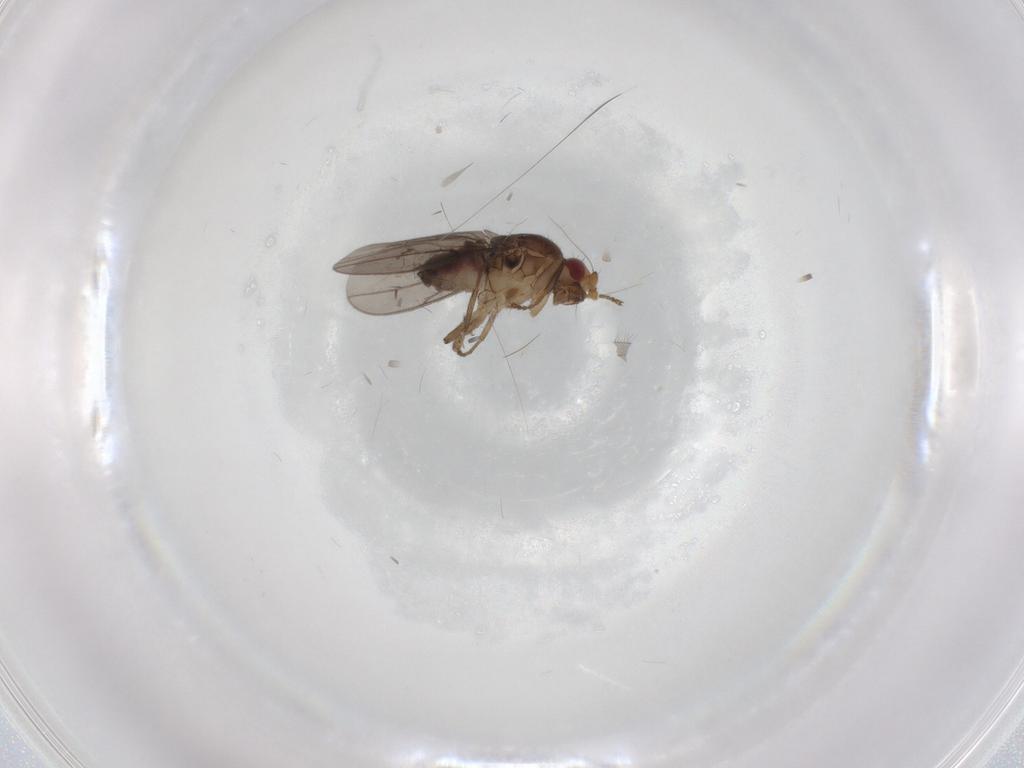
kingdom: Animalia
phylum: Arthropoda
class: Insecta
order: Diptera
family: Sphaeroceridae
